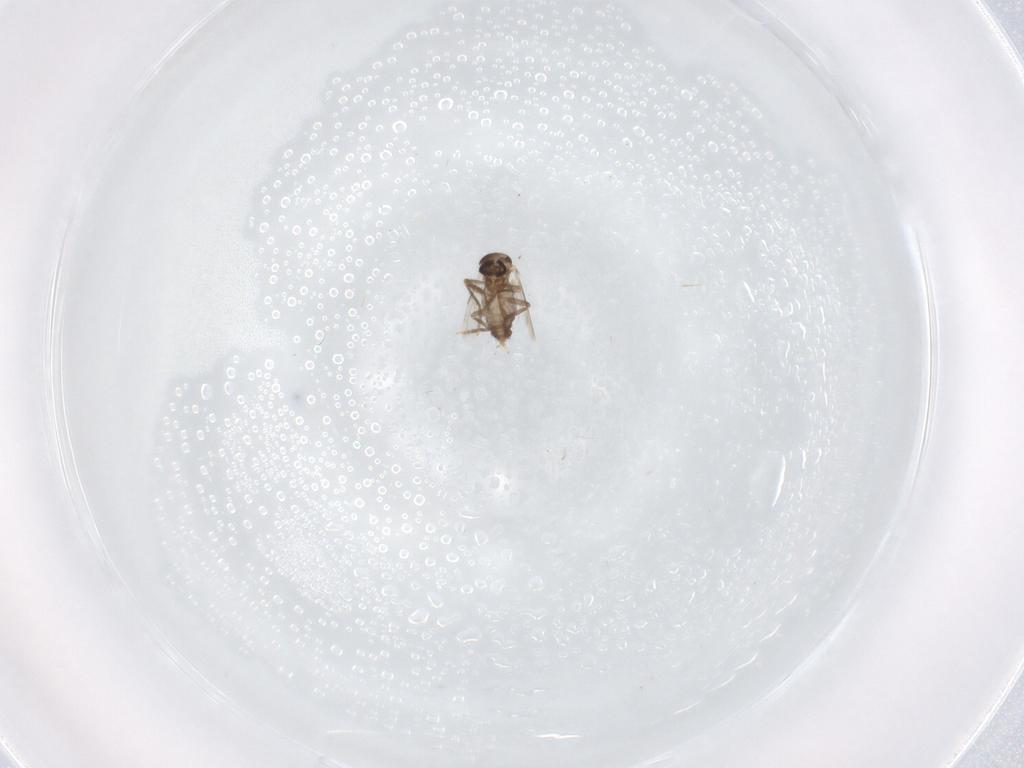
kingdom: Animalia
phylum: Arthropoda
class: Insecta
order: Diptera
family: Ceratopogonidae
